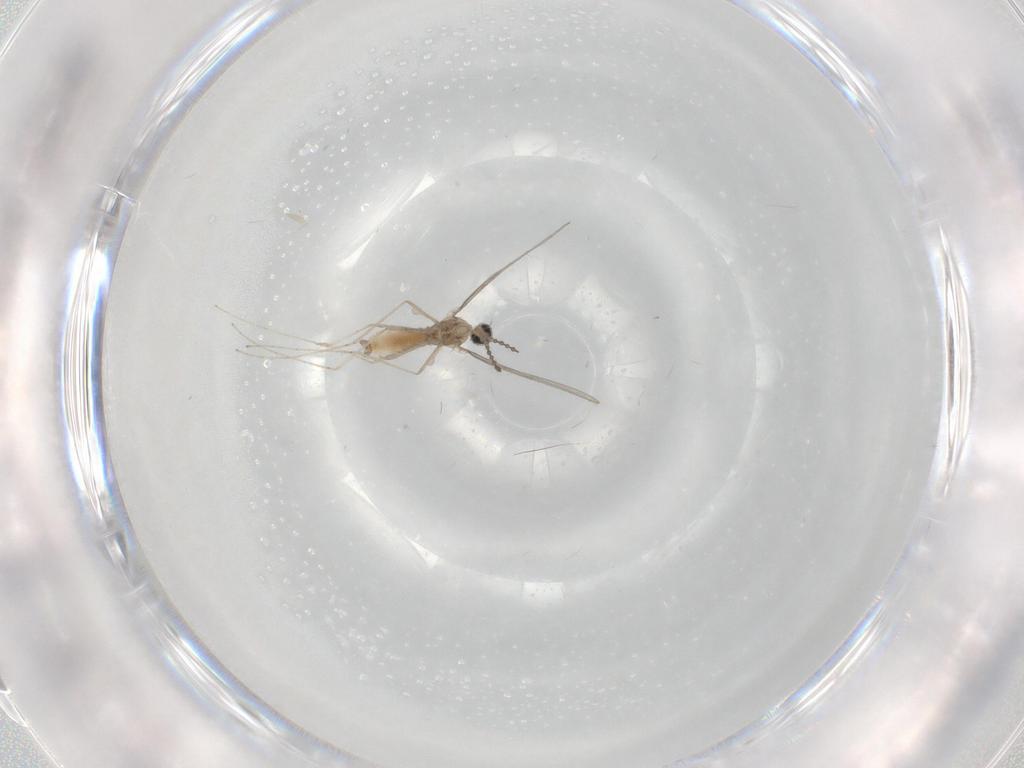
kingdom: Animalia
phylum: Arthropoda
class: Insecta
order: Diptera
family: Cecidomyiidae
